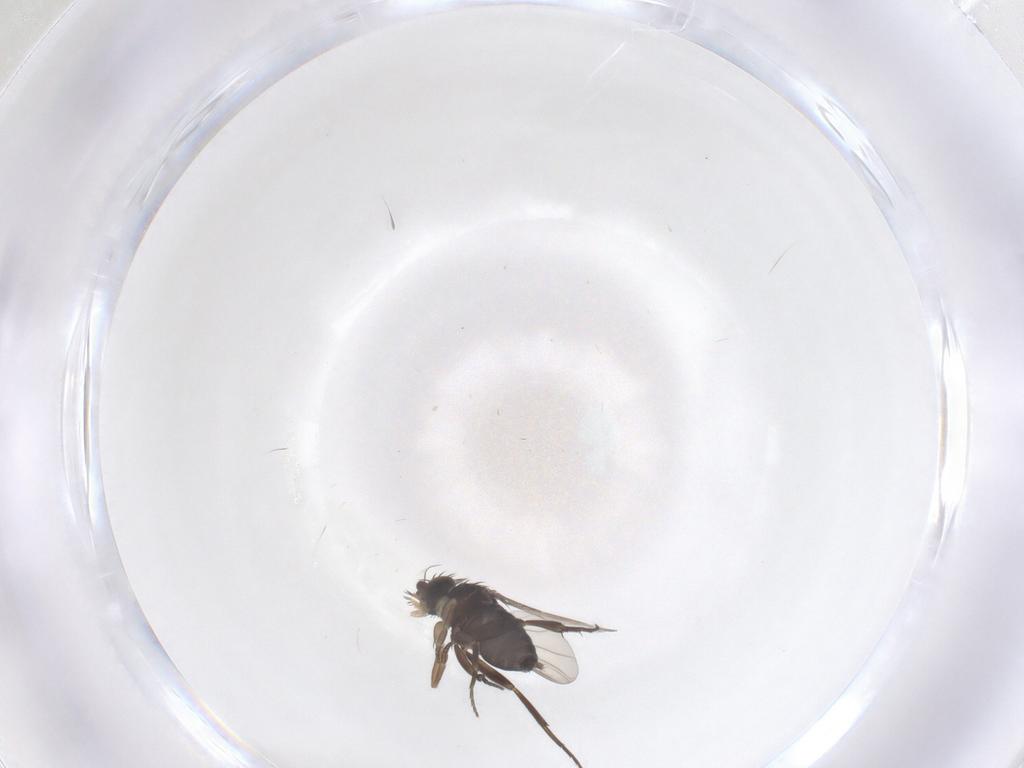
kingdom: Animalia
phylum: Arthropoda
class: Insecta
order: Diptera
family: Phoridae
